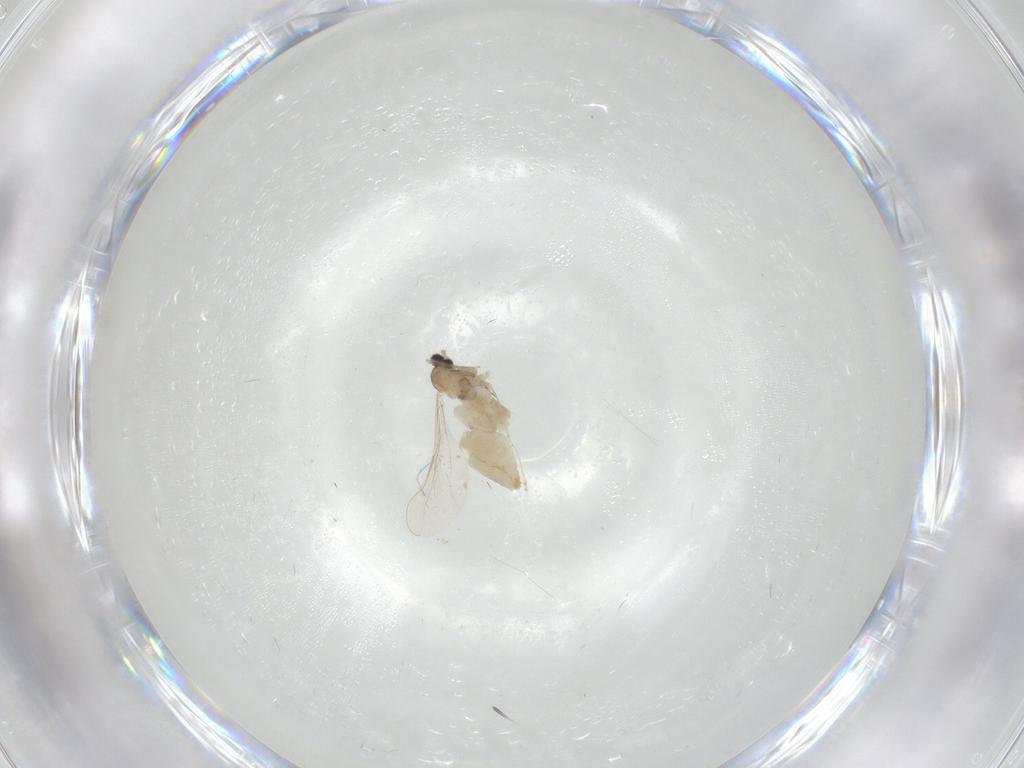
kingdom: Animalia
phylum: Arthropoda
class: Insecta
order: Diptera
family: Cecidomyiidae
